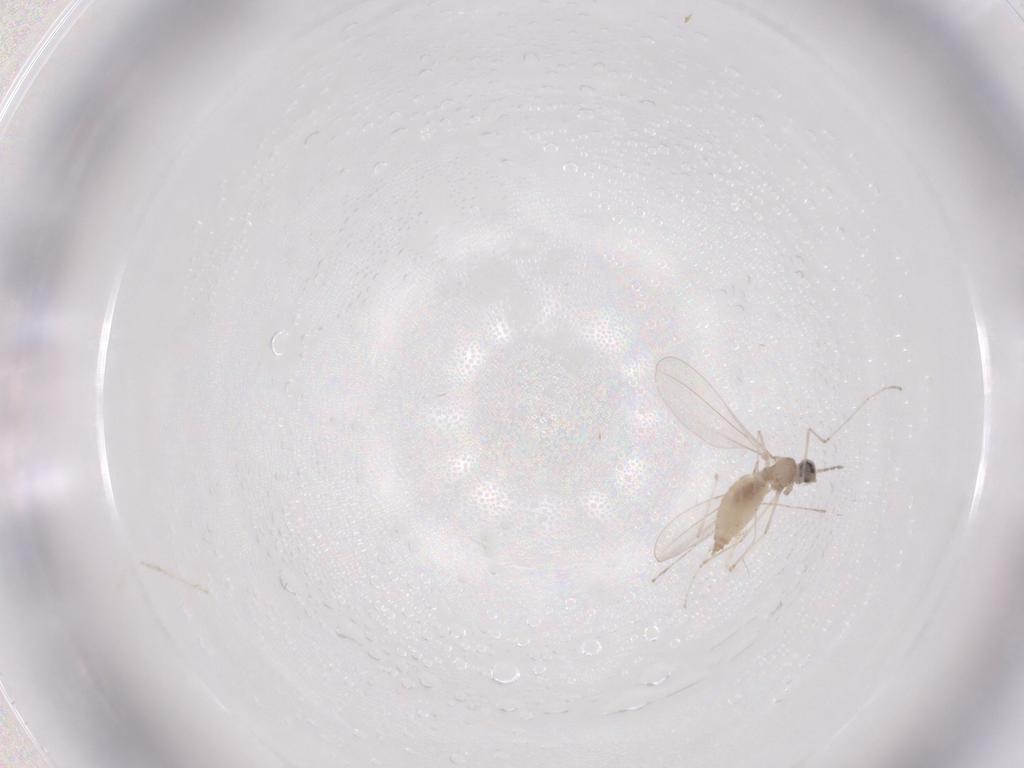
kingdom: Animalia
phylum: Arthropoda
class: Insecta
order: Diptera
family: Cecidomyiidae
